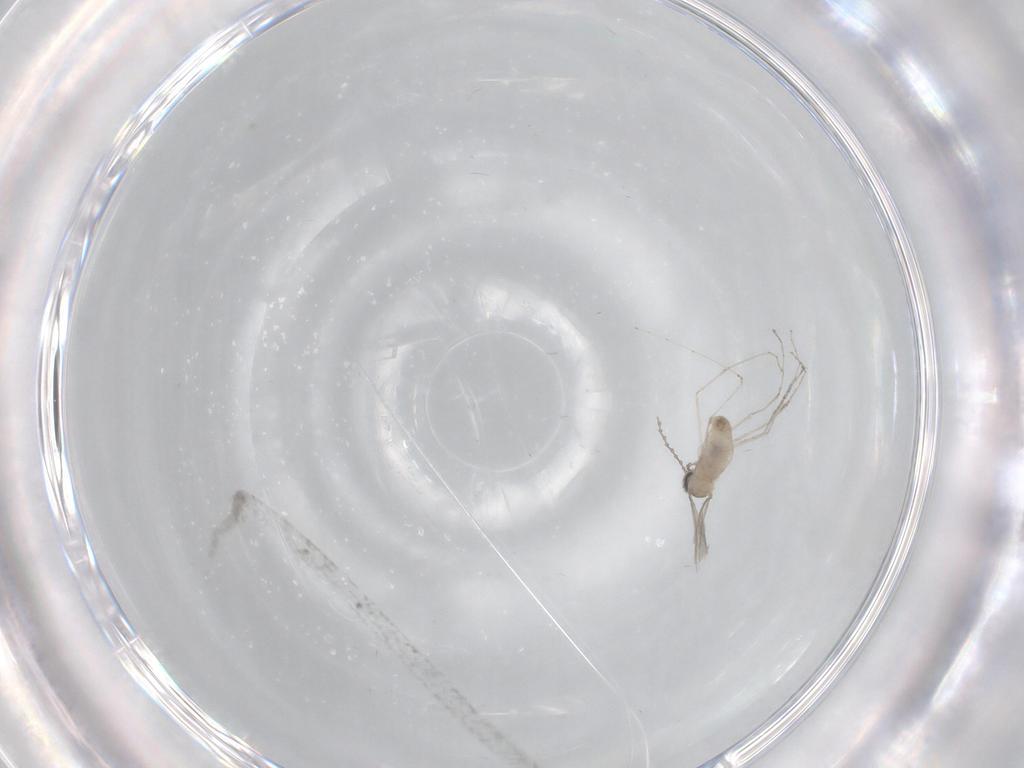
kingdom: Animalia
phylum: Arthropoda
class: Insecta
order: Diptera
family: Cecidomyiidae
